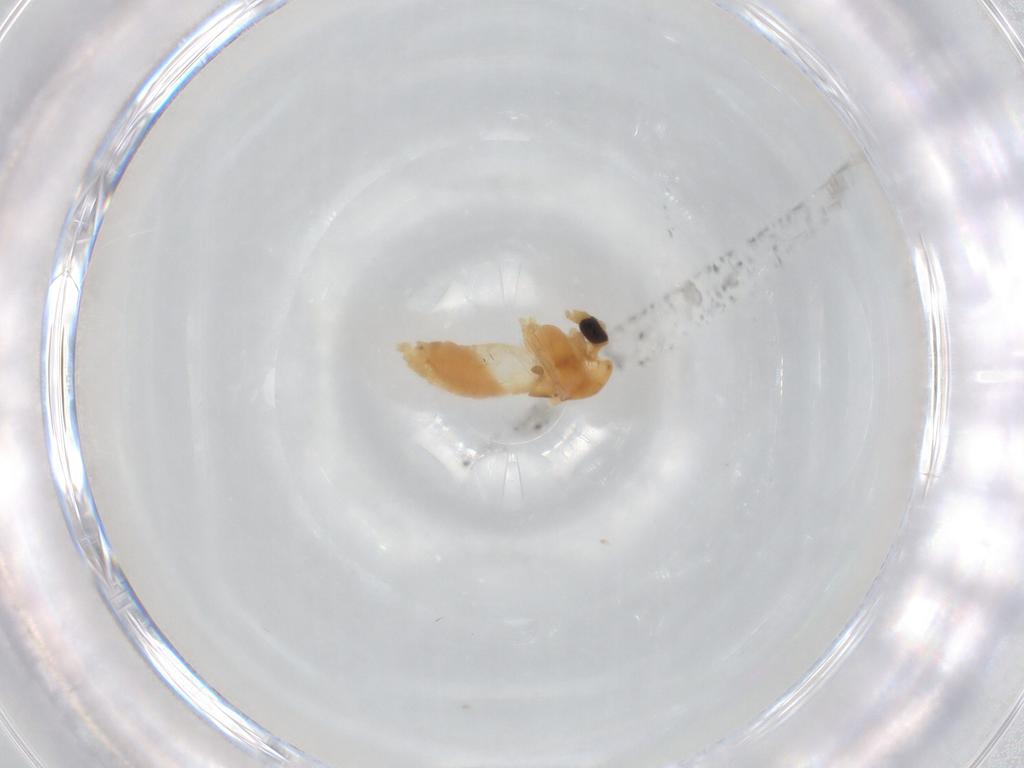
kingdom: Animalia
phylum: Arthropoda
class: Insecta
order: Diptera
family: Chironomidae
